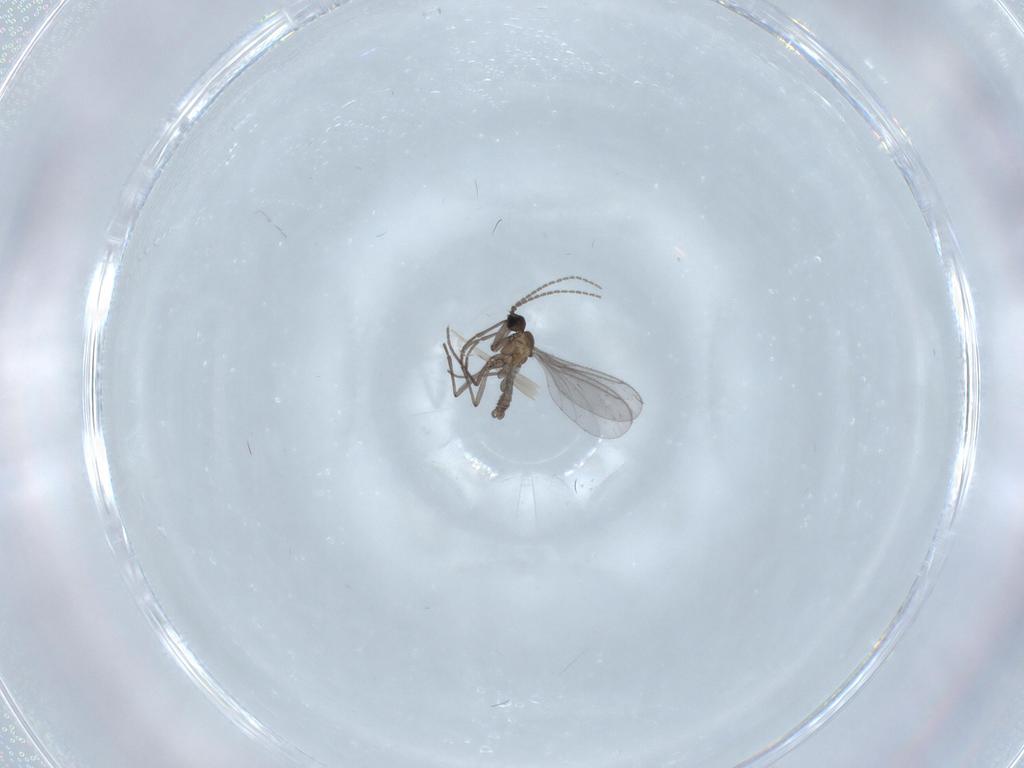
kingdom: Animalia
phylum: Arthropoda
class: Insecta
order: Diptera
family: Sciaridae
